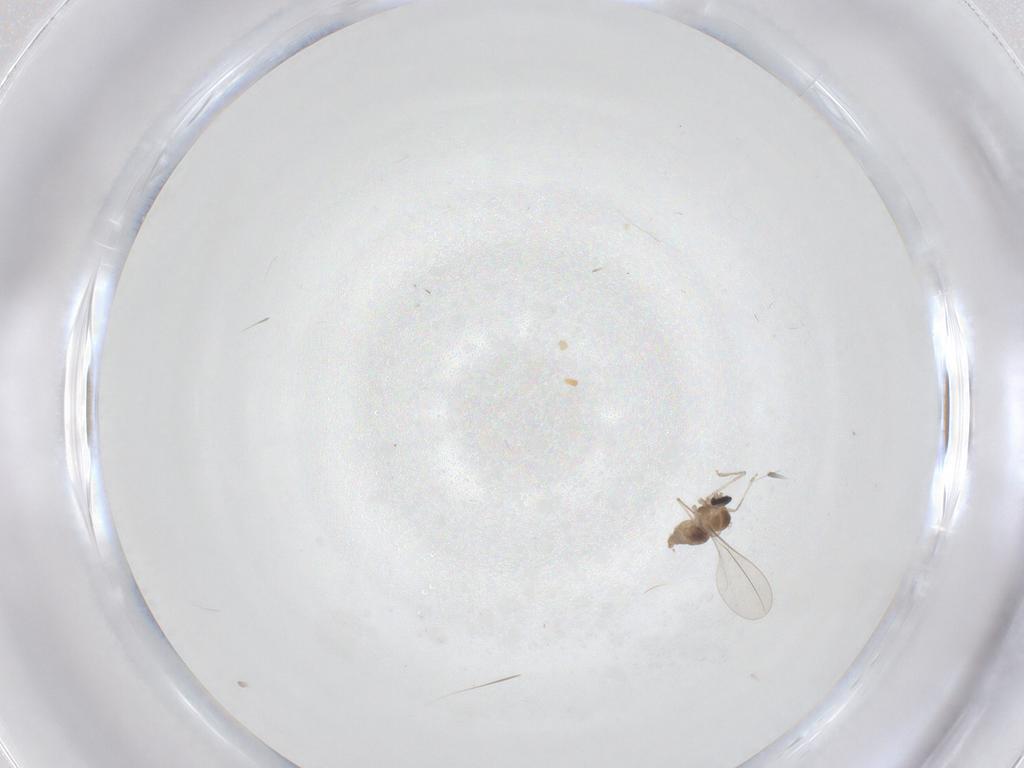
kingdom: Animalia
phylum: Arthropoda
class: Insecta
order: Diptera
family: Cecidomyiidae
